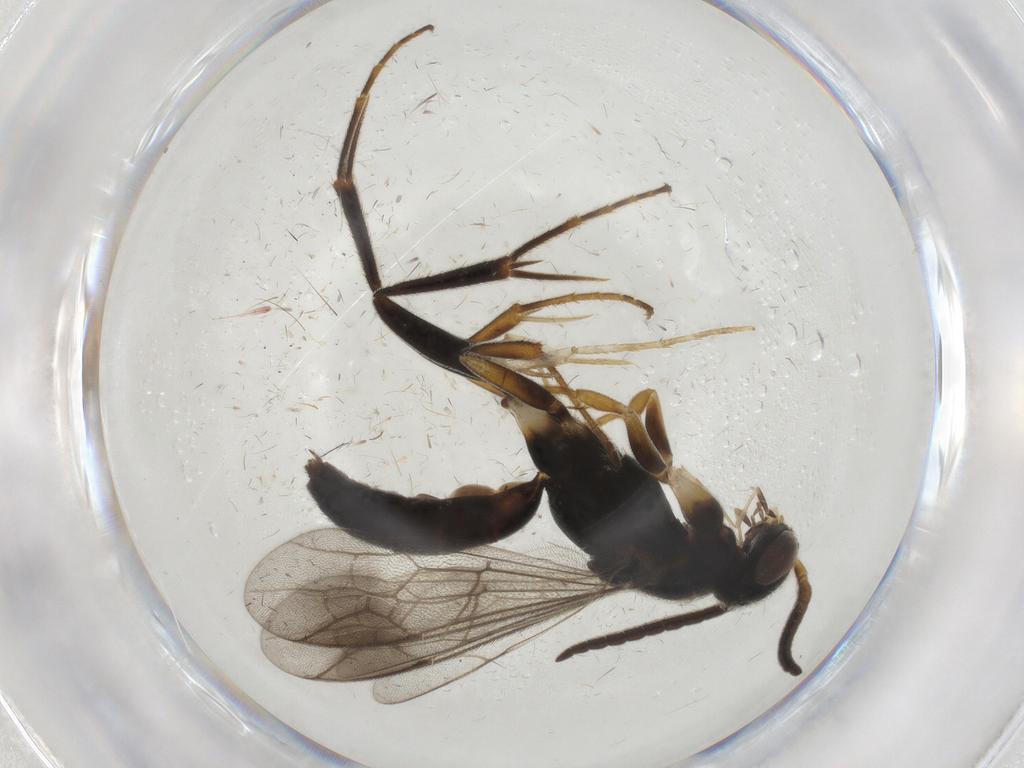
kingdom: Animalia
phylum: Arthropoda
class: Insecta
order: Hymenoptera
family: Pompilidae
